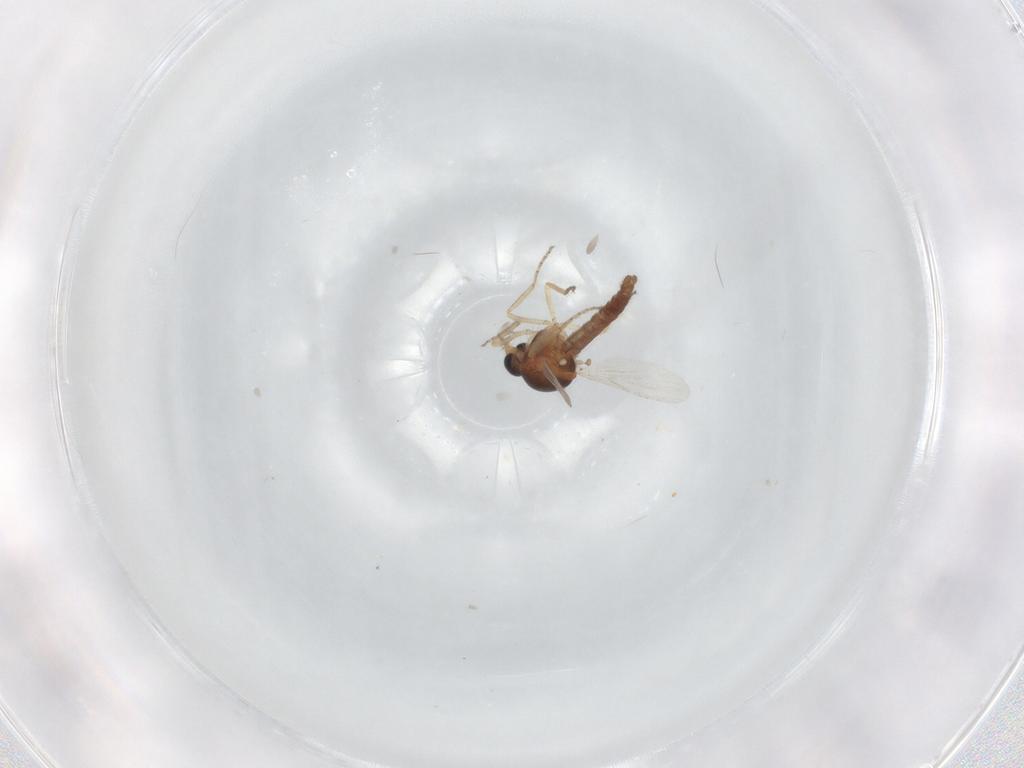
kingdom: Animalia
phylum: Arthropoda
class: Insecta
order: Diptera
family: Ceratopogonidae
